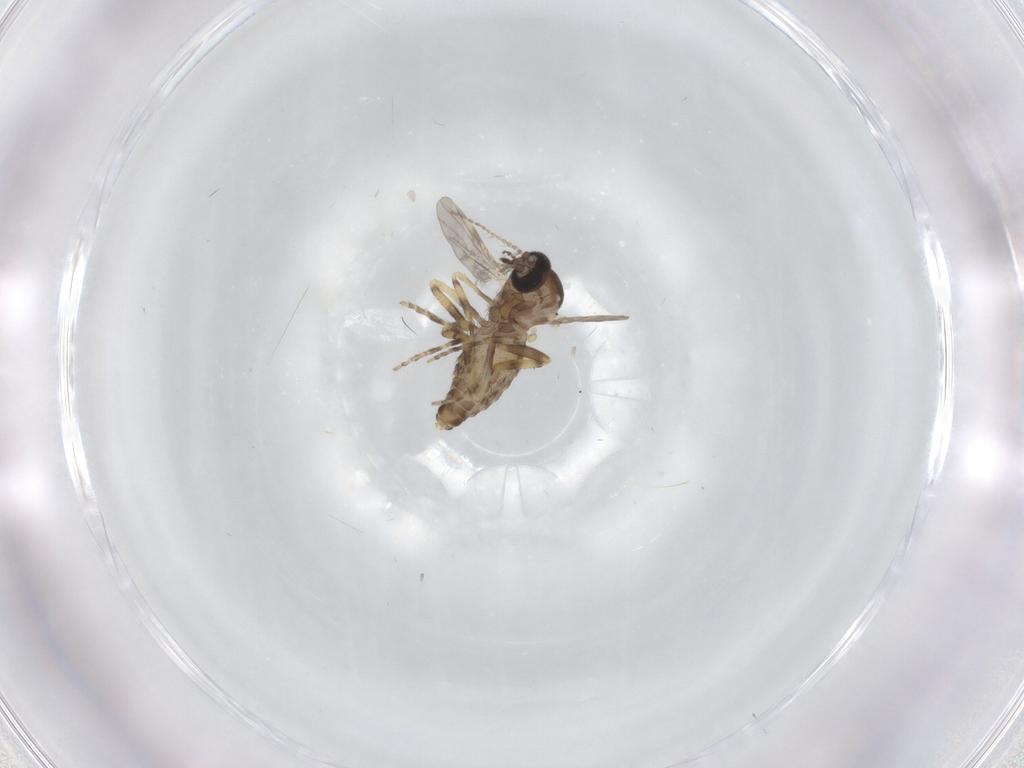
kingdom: Animalia
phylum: Arthropoda
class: Insecta
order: Diptera
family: Ceratopogonidae
